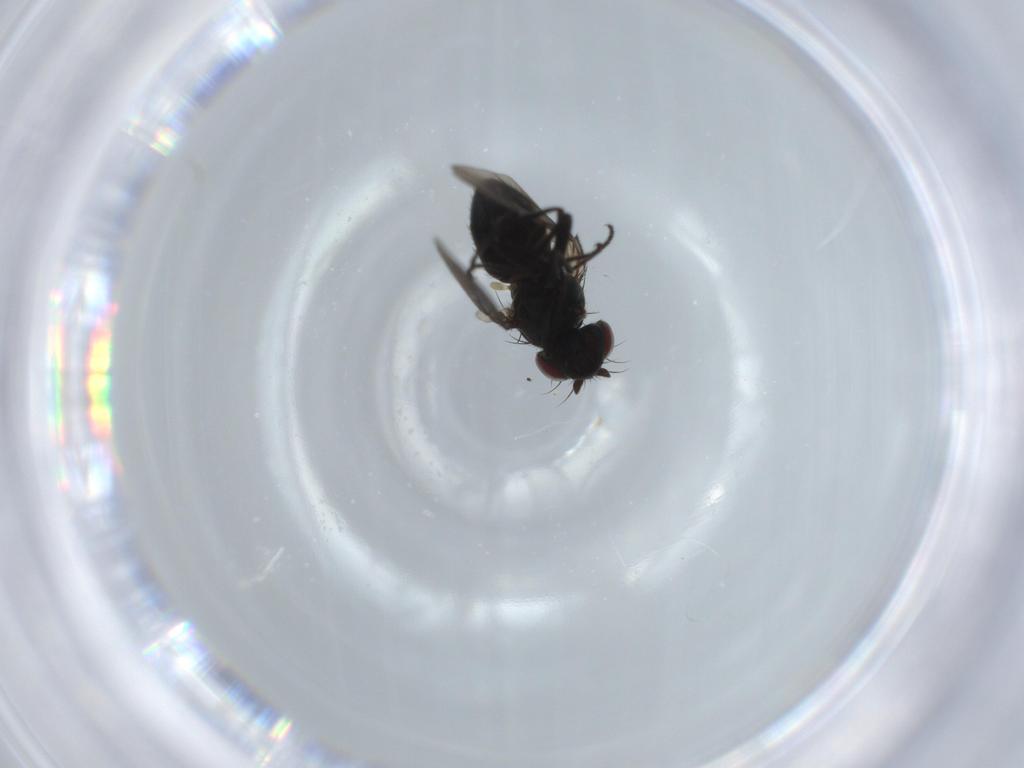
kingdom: Animalia
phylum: Arthropoda
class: Insecta
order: Diptera
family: Ephydridae
